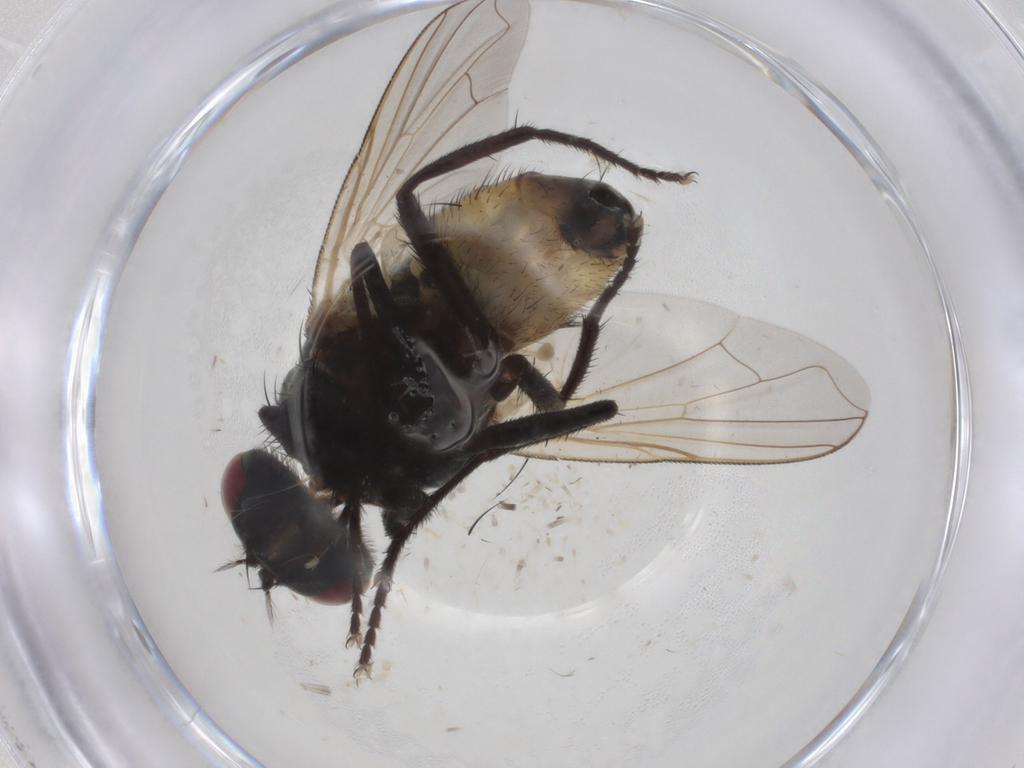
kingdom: Animalia
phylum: Arthropoda
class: Insecta
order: Diptera
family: Muscidae
